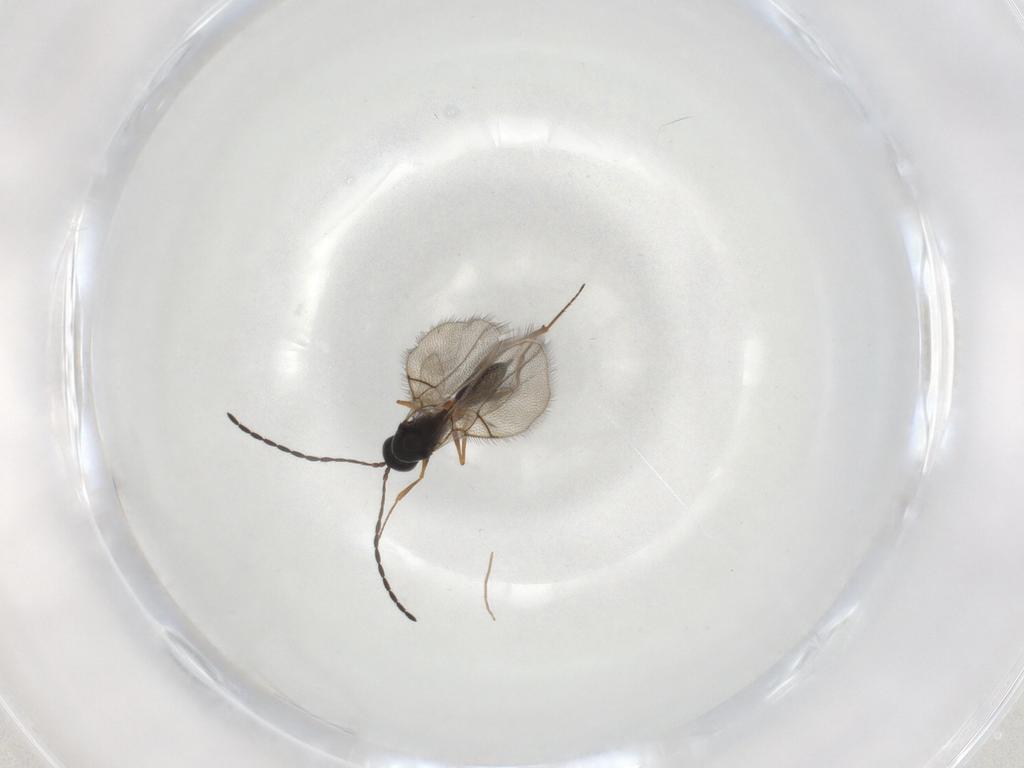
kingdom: Animalia
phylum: Arthropoda
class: Insecta
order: Hymenoptera
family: Figitidae
